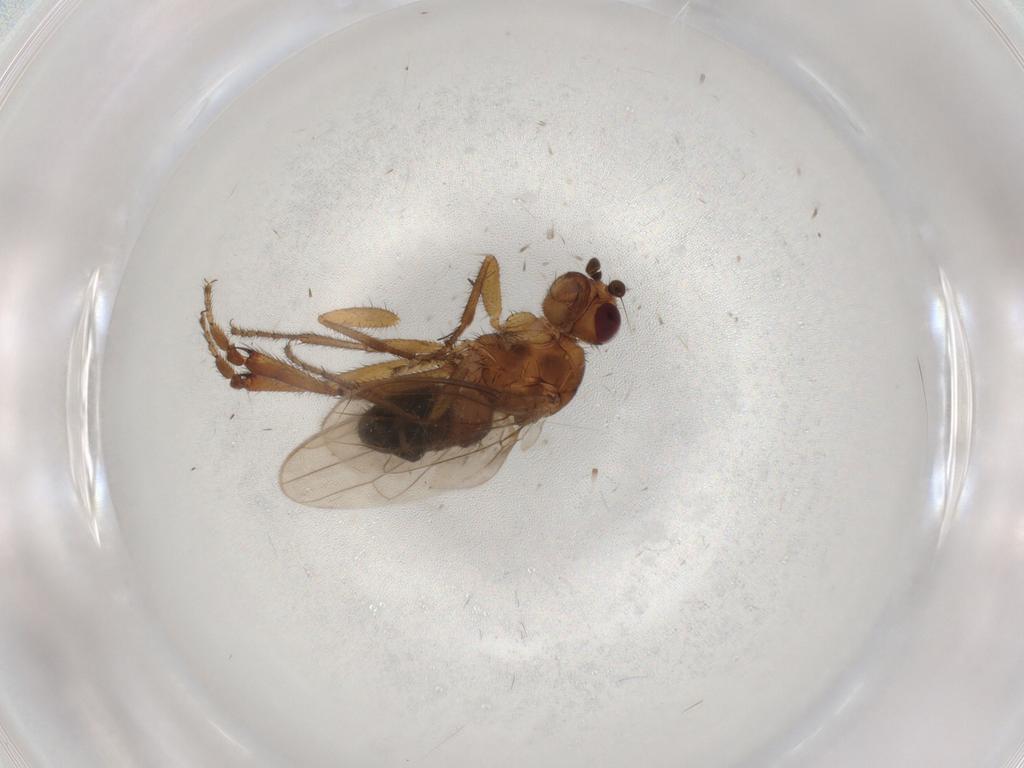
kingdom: Animalia
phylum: Arthropoda
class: Insecta
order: Diptera
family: Sphaeroceridae
